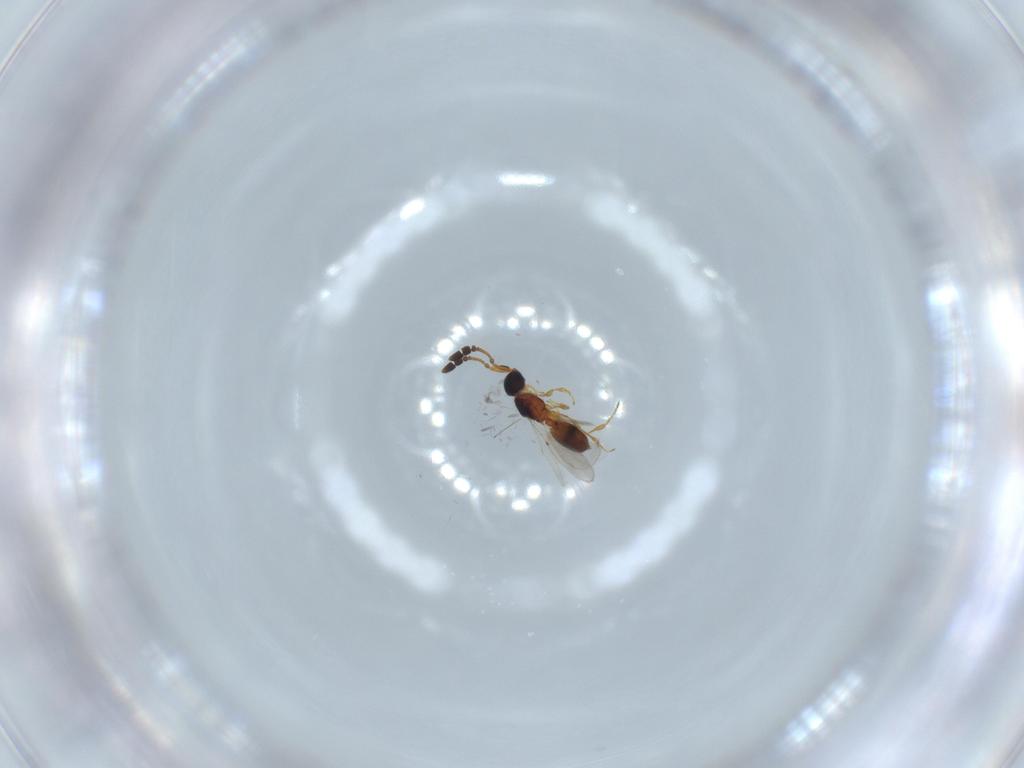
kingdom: Animalia
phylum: Arthropoda
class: Insecta
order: Hymenoptera
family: Diapriidae
